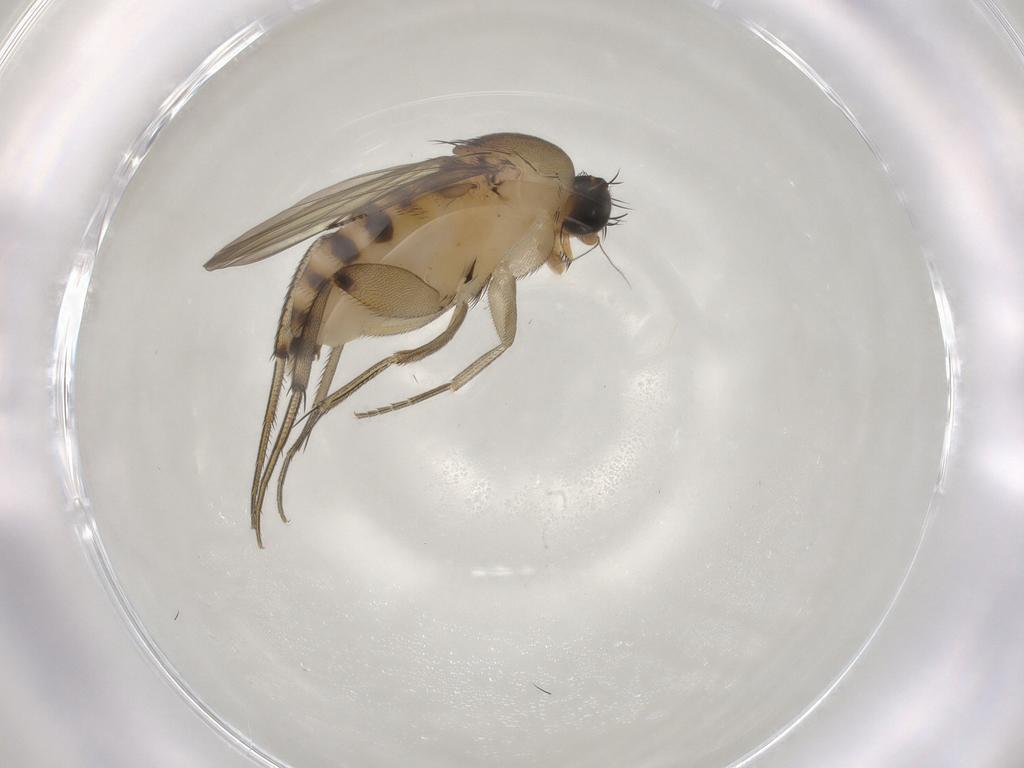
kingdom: Animalia
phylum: Arthropoda
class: Insecta
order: Diptera
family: Phoridae
